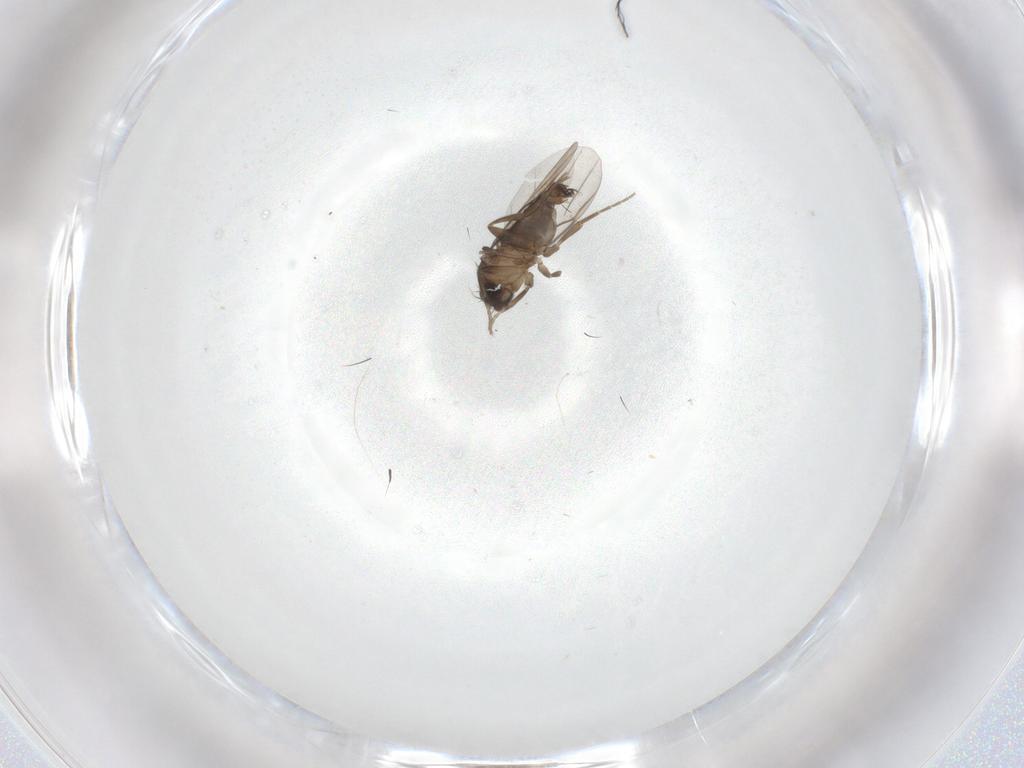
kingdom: Animalia
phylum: Arthropoda
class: Insecta
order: Diptera
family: Phoridae
